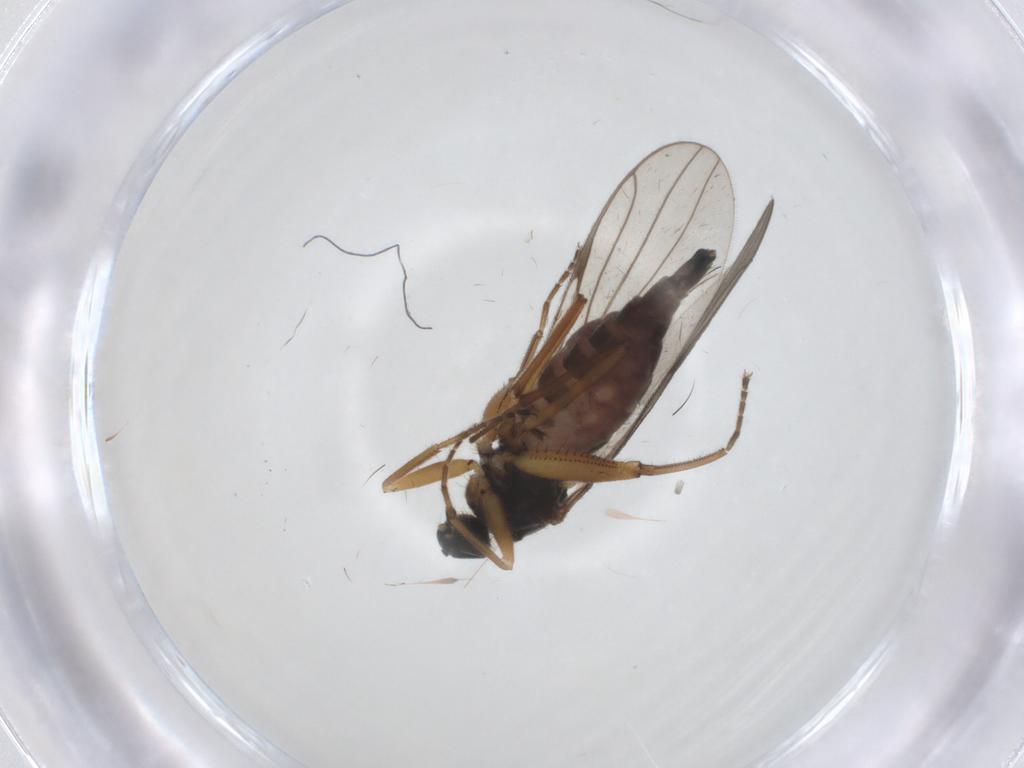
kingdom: Animalia
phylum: Arthropoda
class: Insecta
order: Diptera
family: Hybotidae
